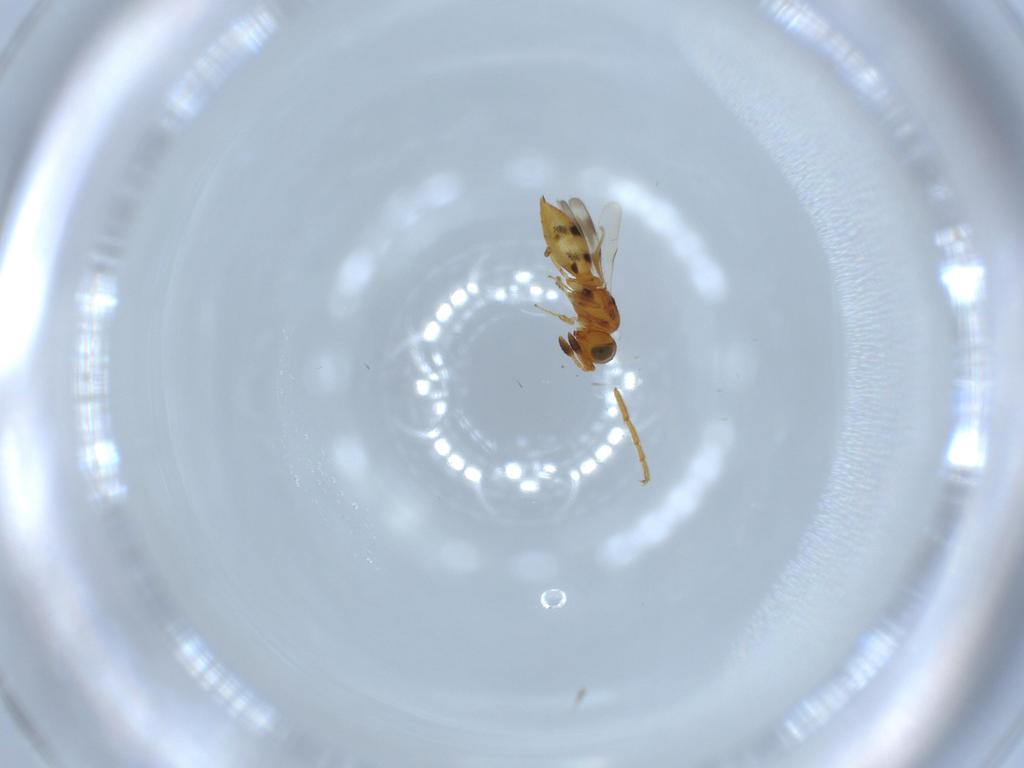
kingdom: Animalia
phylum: Arthropoda
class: Insecta
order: Hymenoptera
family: Scelionidae
